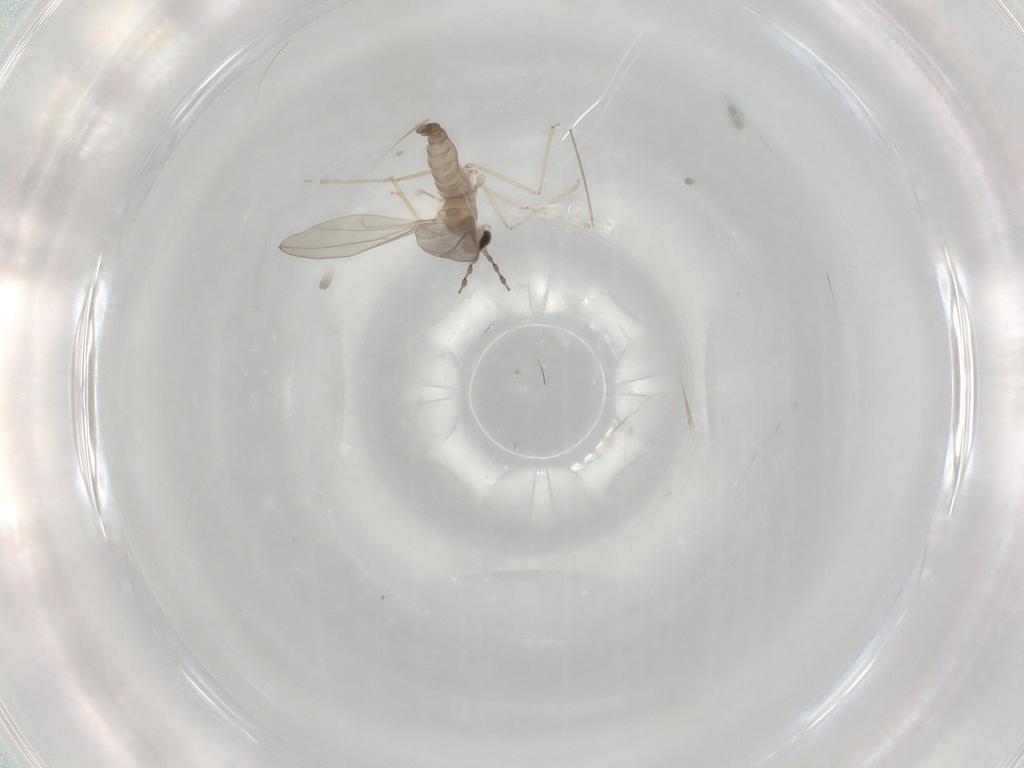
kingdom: Animalia
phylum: Arthropoda
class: Insecta
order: Diptera
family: Cecidomyiidae
